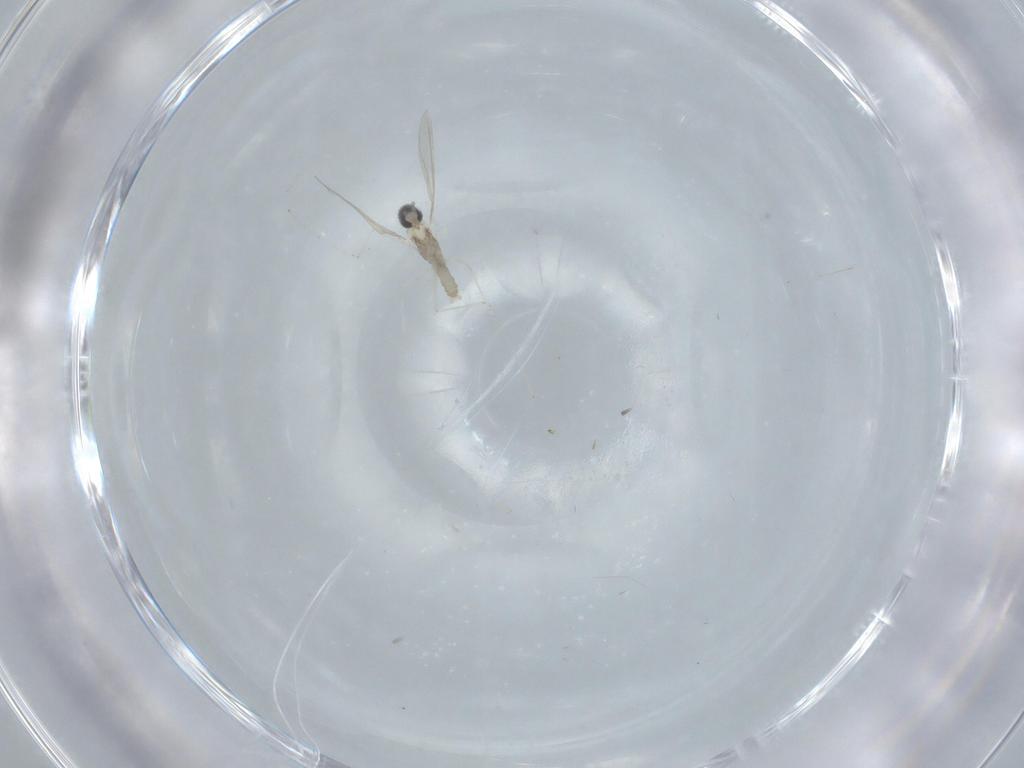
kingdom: Animalia
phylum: Arthropoda
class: Insecta
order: Diptera
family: Cecidomyiidae
